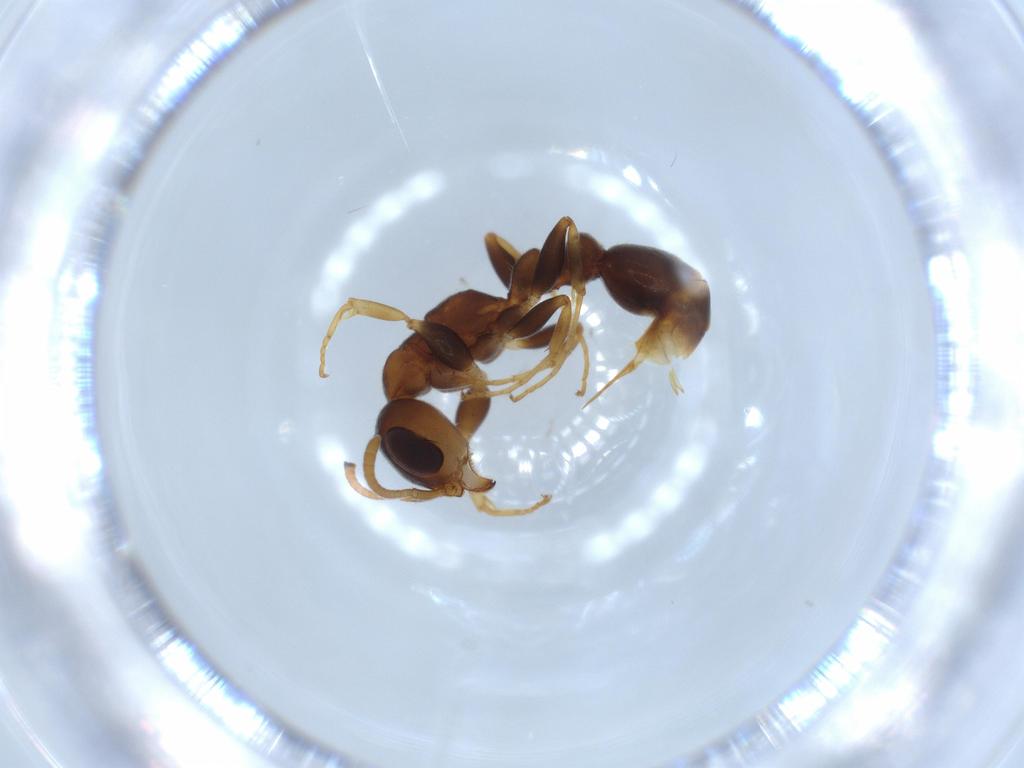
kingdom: Animalia
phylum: Arthropoda
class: Insecta
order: Hymenoptera
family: Formicidae
